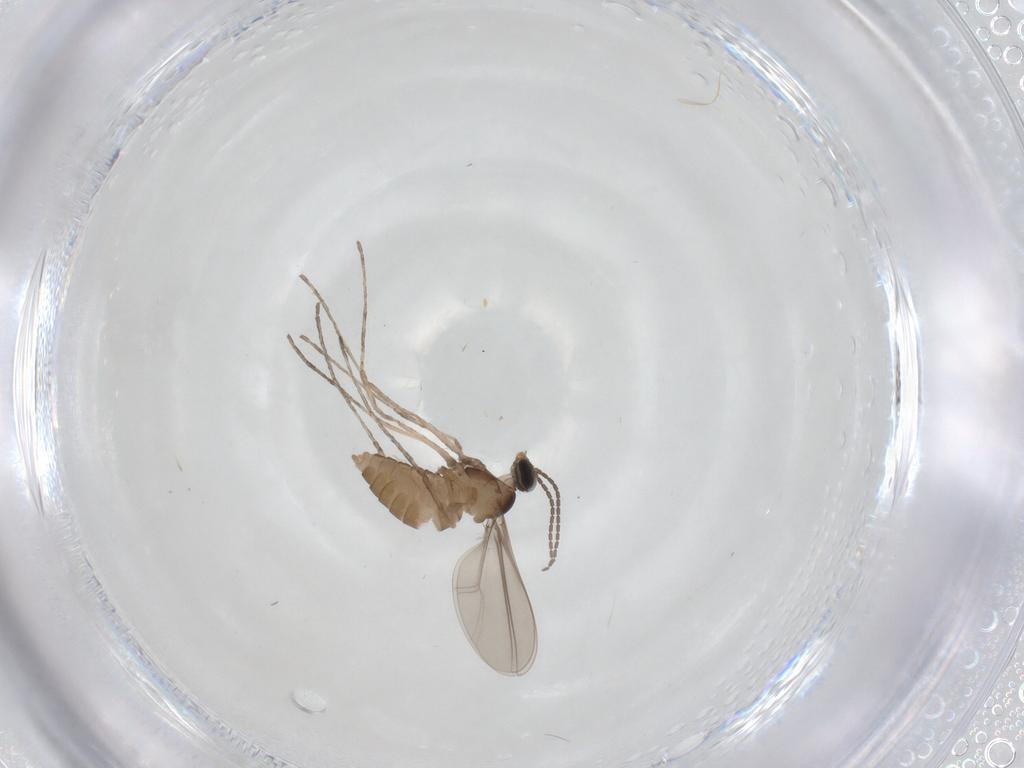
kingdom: Animalia
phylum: Arthropoda
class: Insecta
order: Diptera
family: Cecidomyiidae
